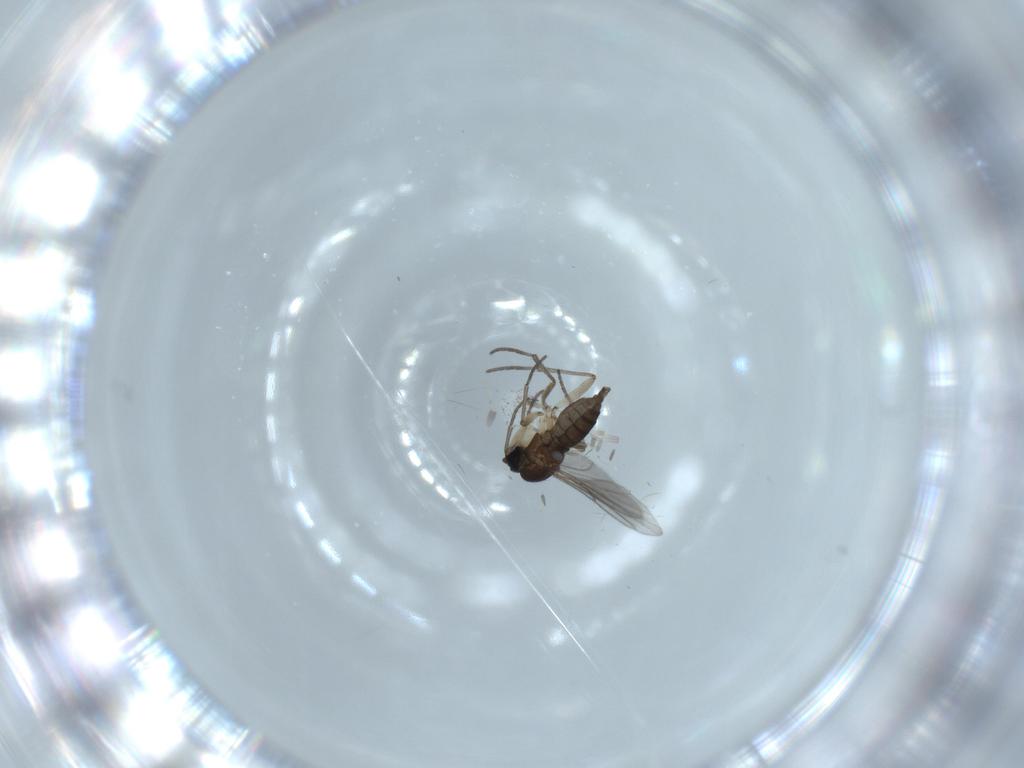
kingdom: Animalia
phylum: Arthropoda
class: Insecta
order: Diptera
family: Sciaridae
